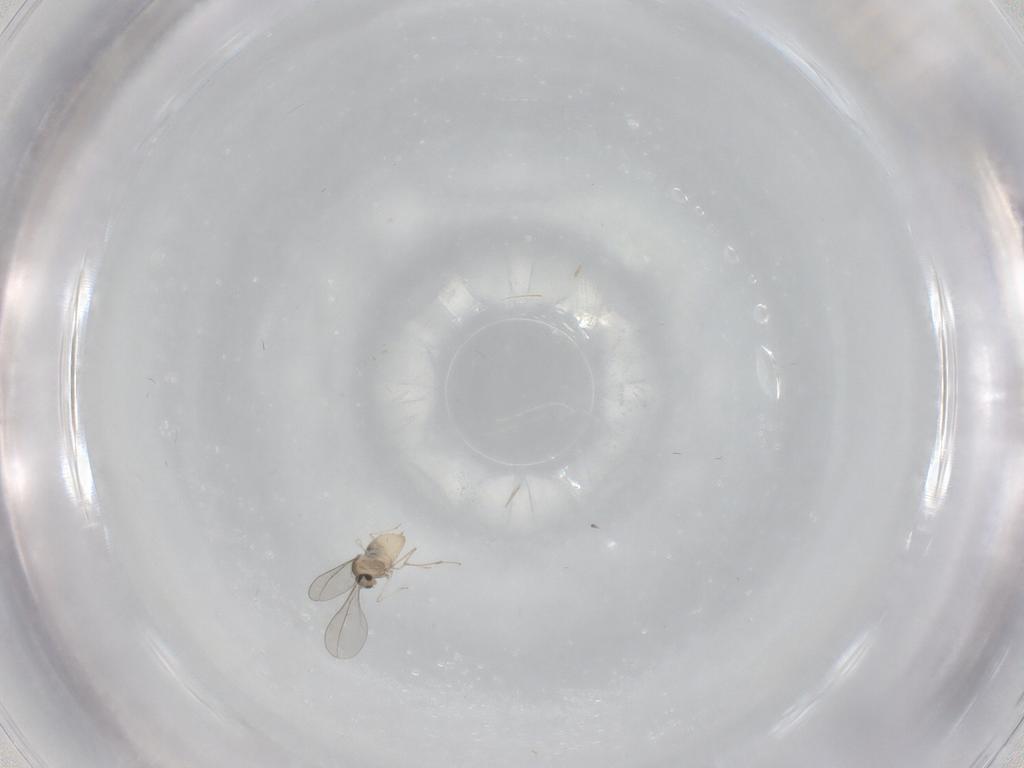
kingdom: Animalia
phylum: Arthropoda
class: Insecta
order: Diptera
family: Cecidomyiidae
